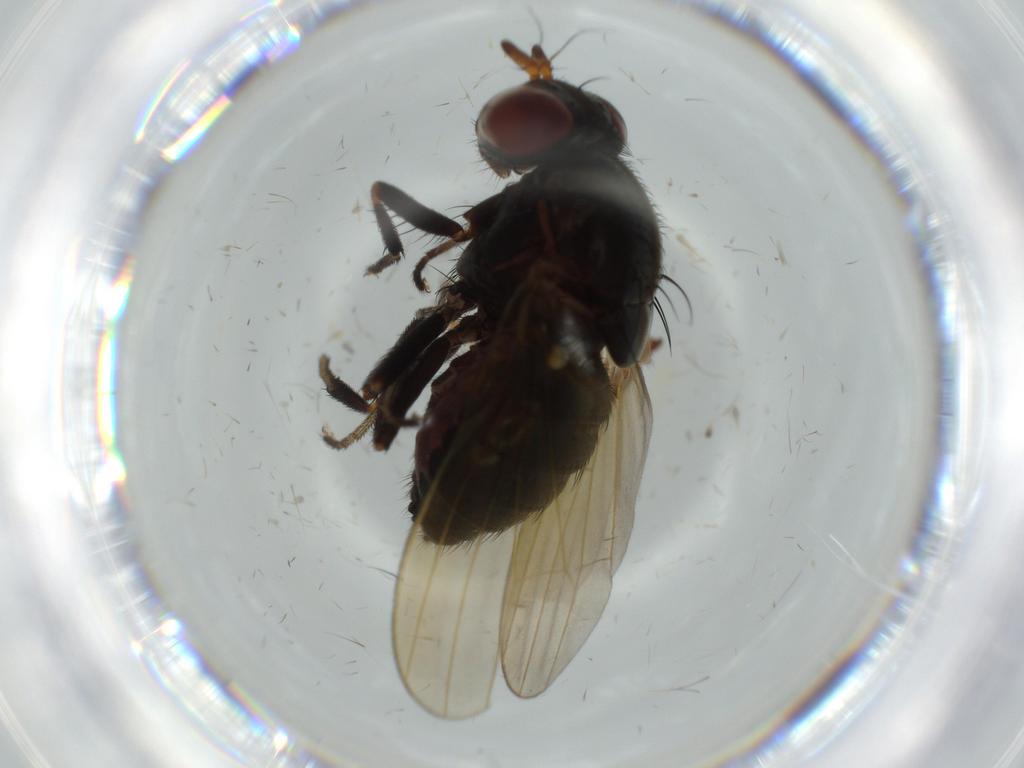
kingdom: Animalia
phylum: Arthropoda
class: Insecta
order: Diptera
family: Lauxaniidae
